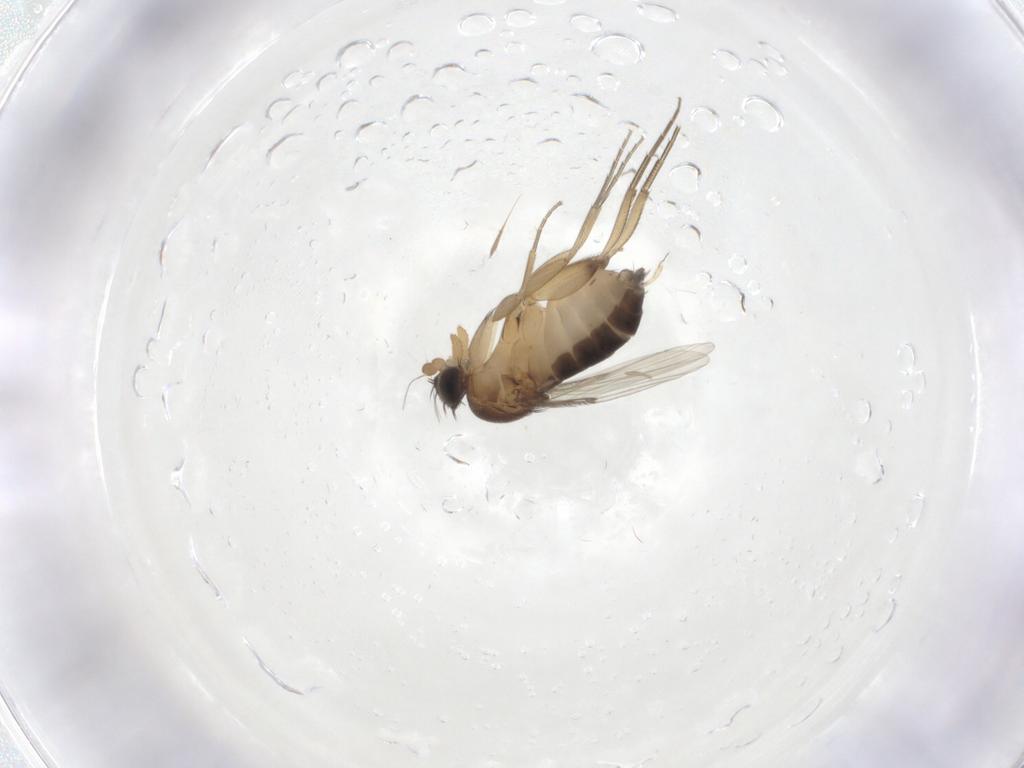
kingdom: Animalia
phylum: Arthropoda
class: Insecta
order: Diptera
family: Phoridae
